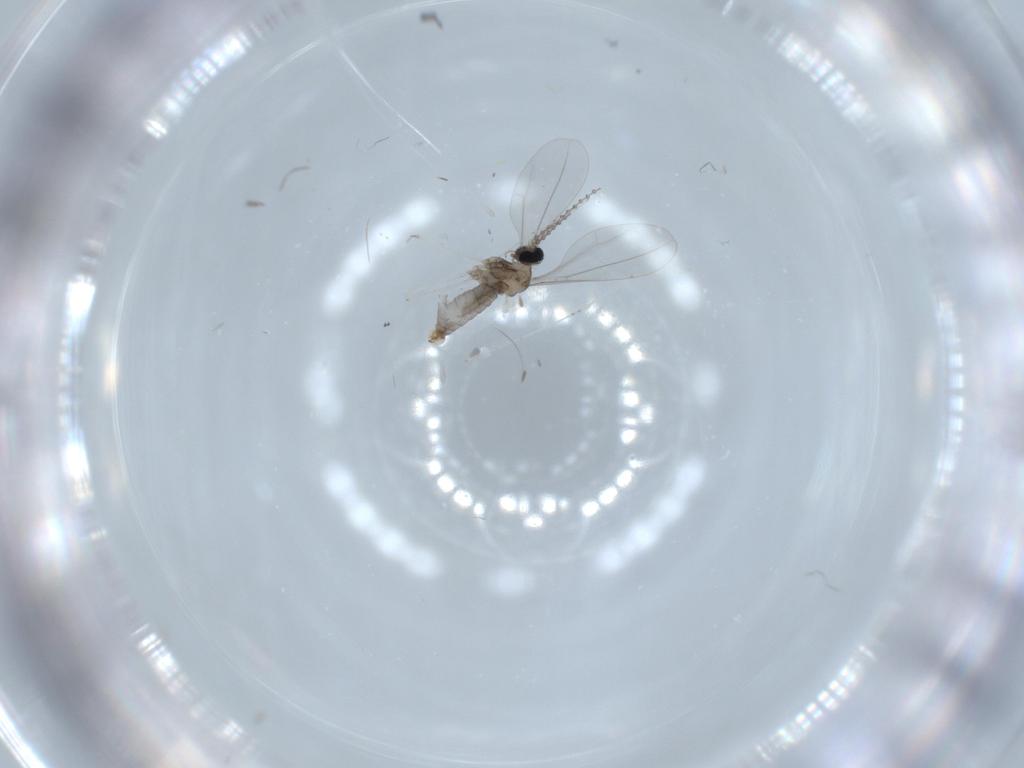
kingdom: Animalia
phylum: Arthropoda
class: Insecta
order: Diptera
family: Cecidomyiidae
